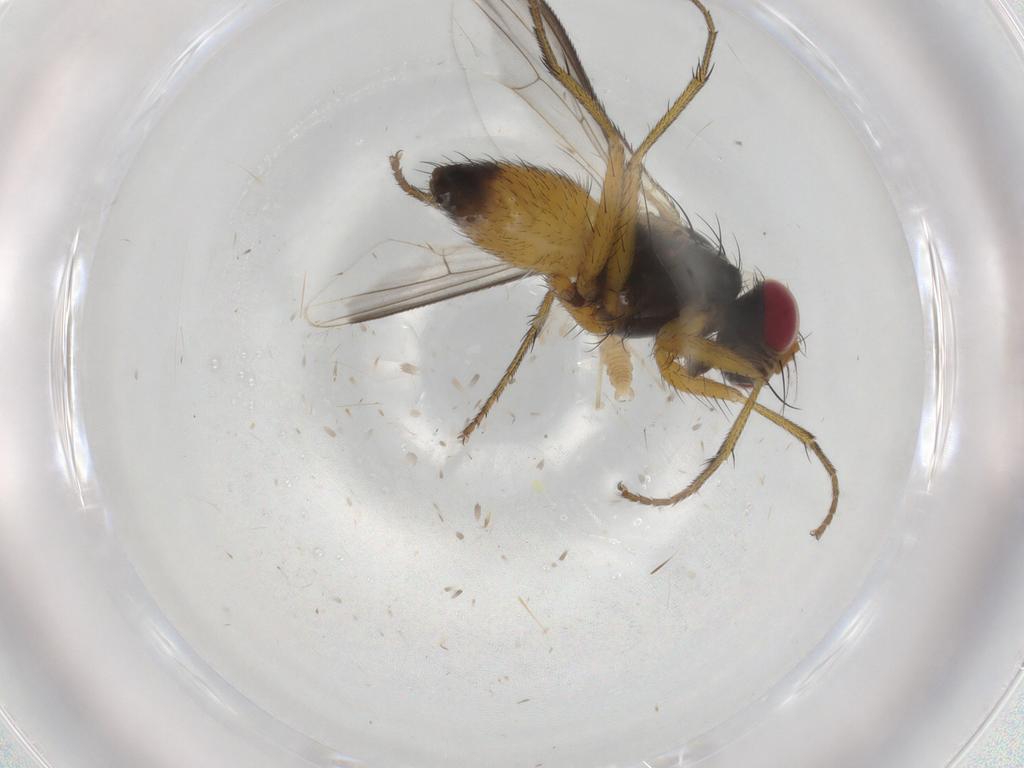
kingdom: Animalia
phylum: Arthropoda
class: Insecta
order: Diptera
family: Muscidae
